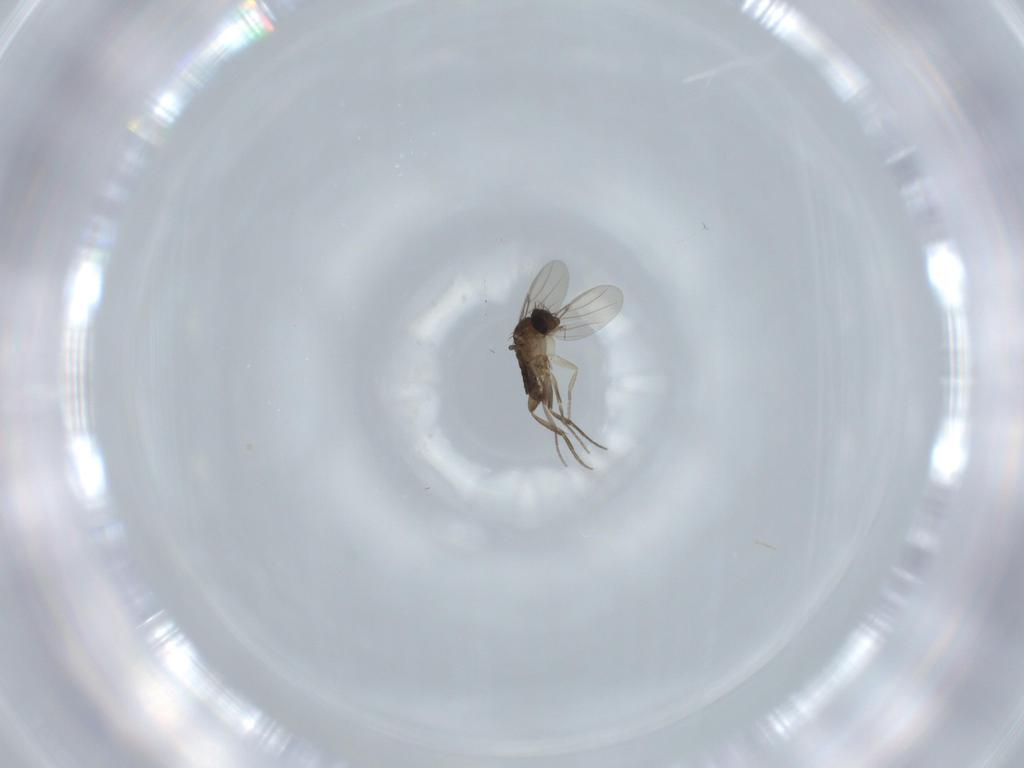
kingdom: Animalia
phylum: Arthropoda
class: Insecta
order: Diptera
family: Phoridae
